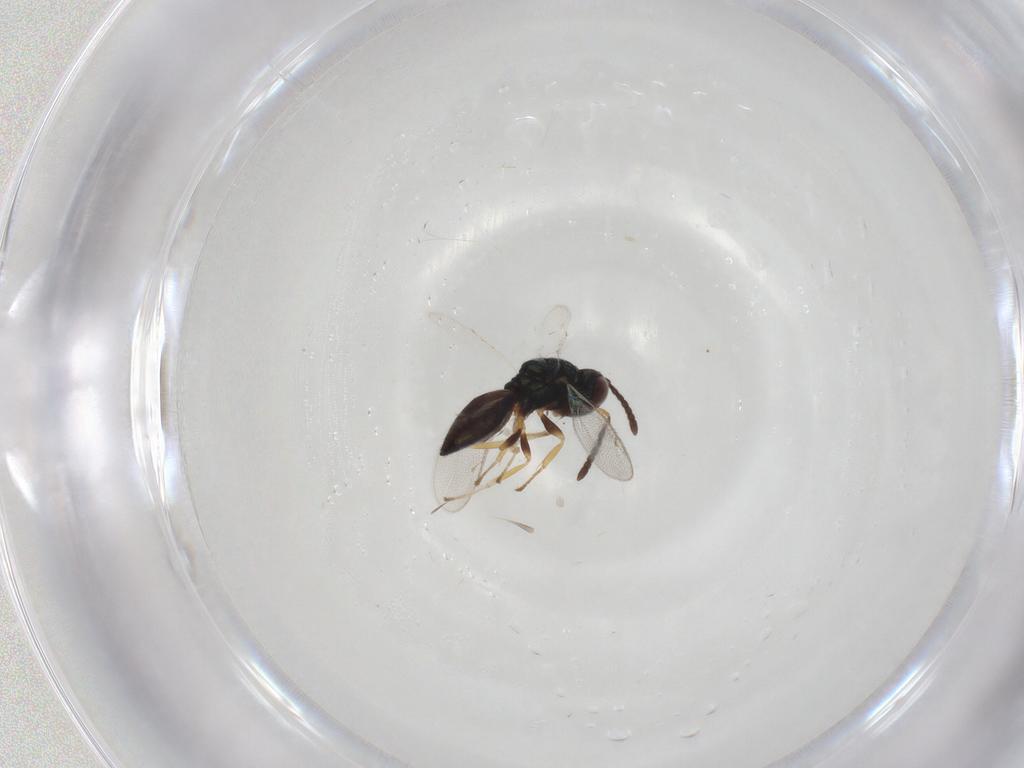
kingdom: Animalia
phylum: Arthropoda
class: Insecta
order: Hymenoptera
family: Pteromalidae
